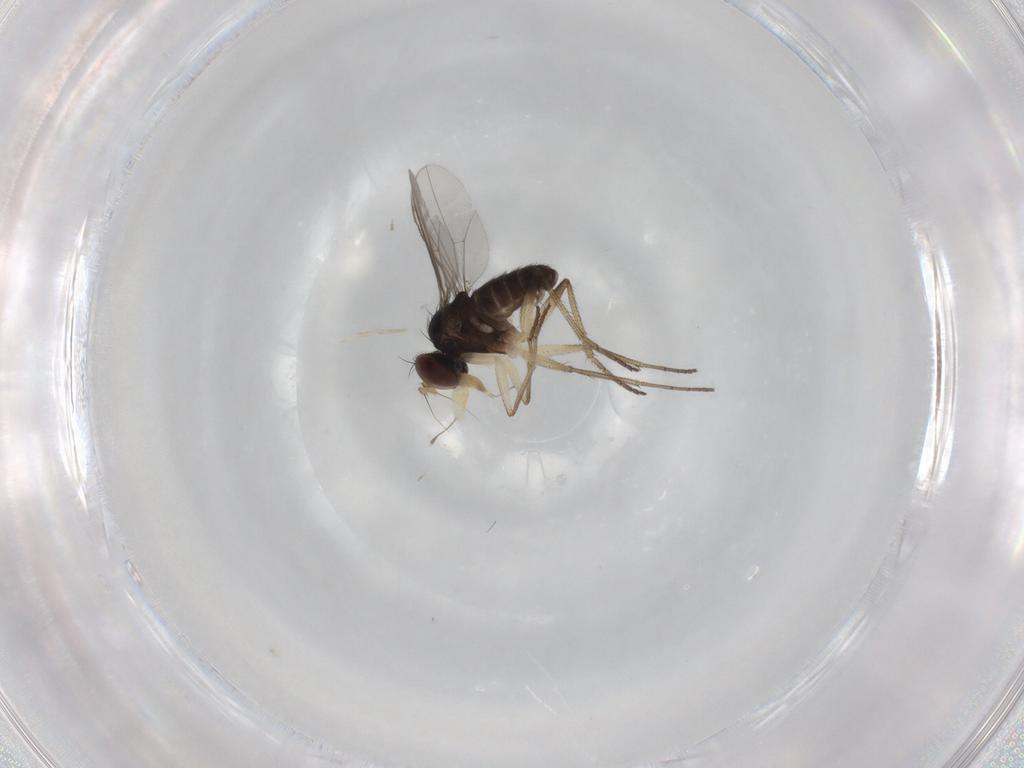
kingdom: Animalia
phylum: Arthropoda
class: Insecta
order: Diptera
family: Dolichopodidae
